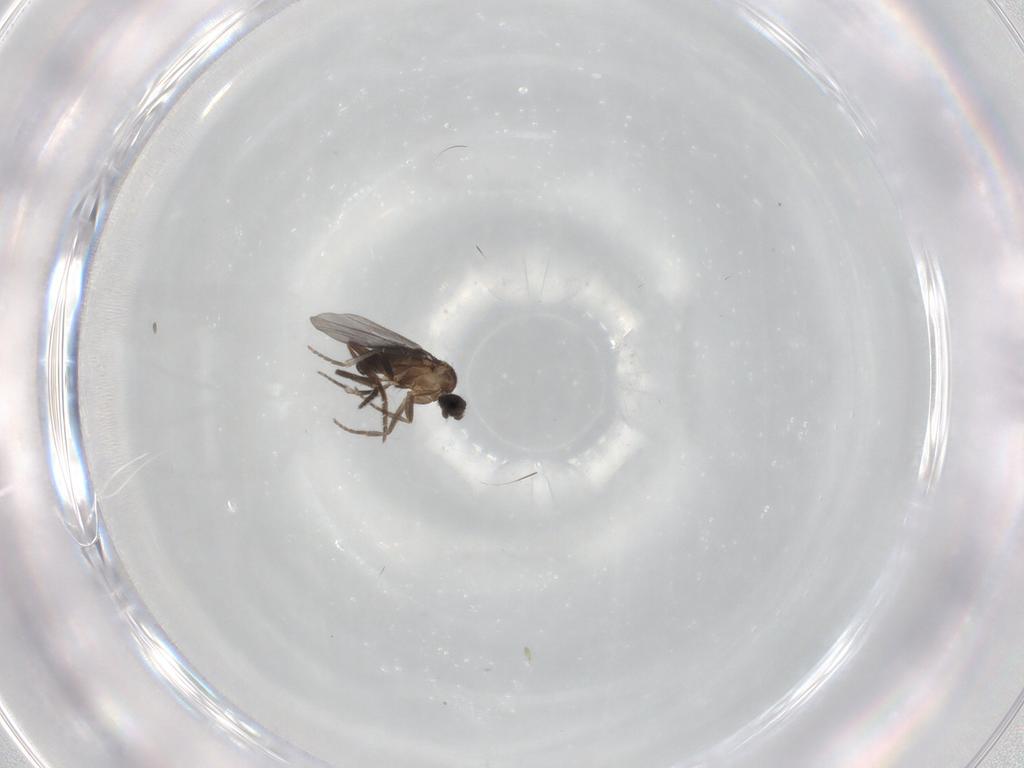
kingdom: Animalia
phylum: Arthropoda
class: Insecta
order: Diptera
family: Phoridae
